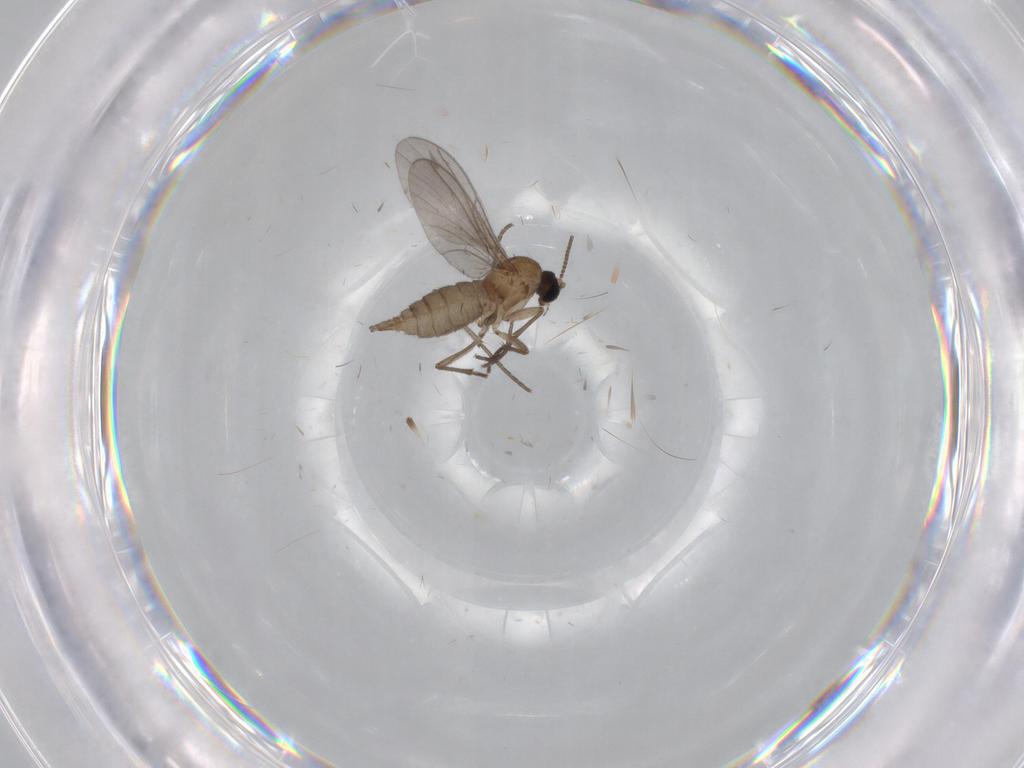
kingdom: Animalia
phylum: Arthropoda
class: Insecta
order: Diptera
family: Sciaridae
